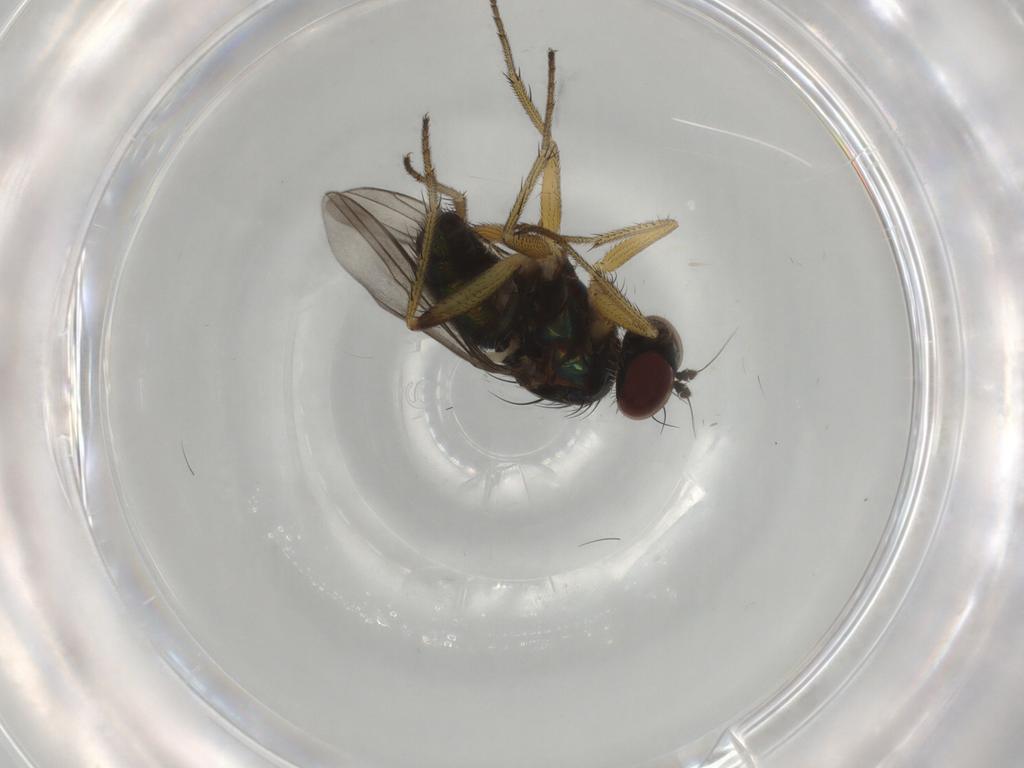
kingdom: Animalia
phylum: Arthropoda
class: Insecta
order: Diptera
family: Dolichopodidae
